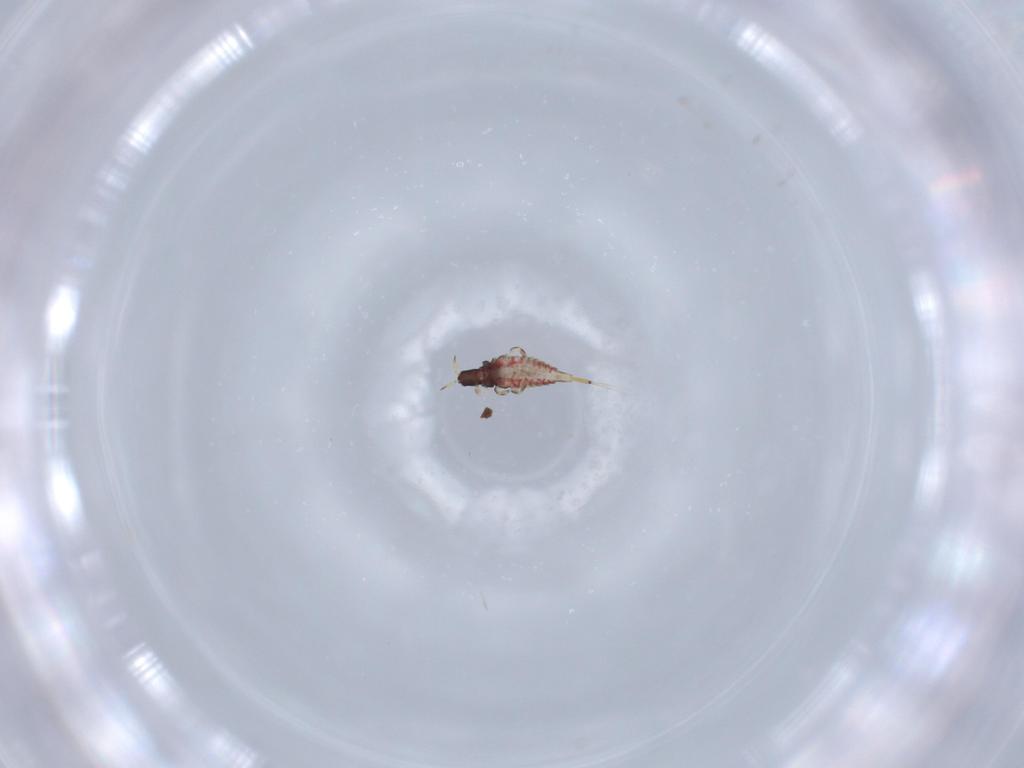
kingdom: Animalia
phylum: Arthropoda
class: Insecta
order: Thysanoptera
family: Phlaeothripidae
